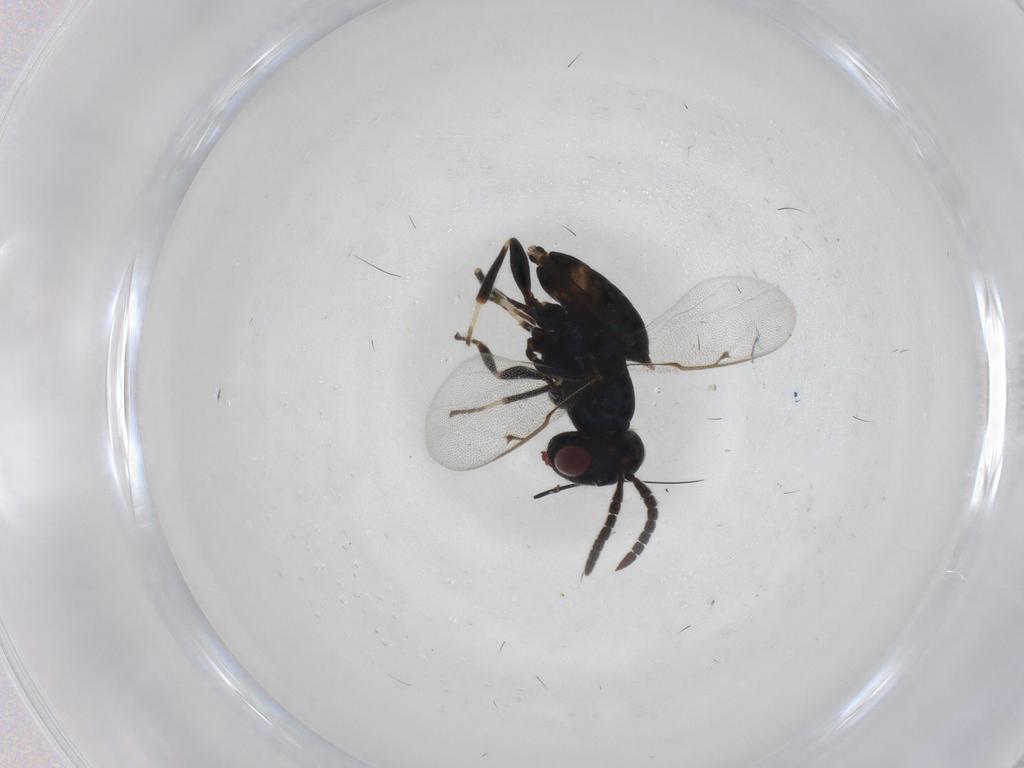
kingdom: Animalia
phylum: Arthropoda
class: Insecta
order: Hymenoptera
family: Pteromalidae
